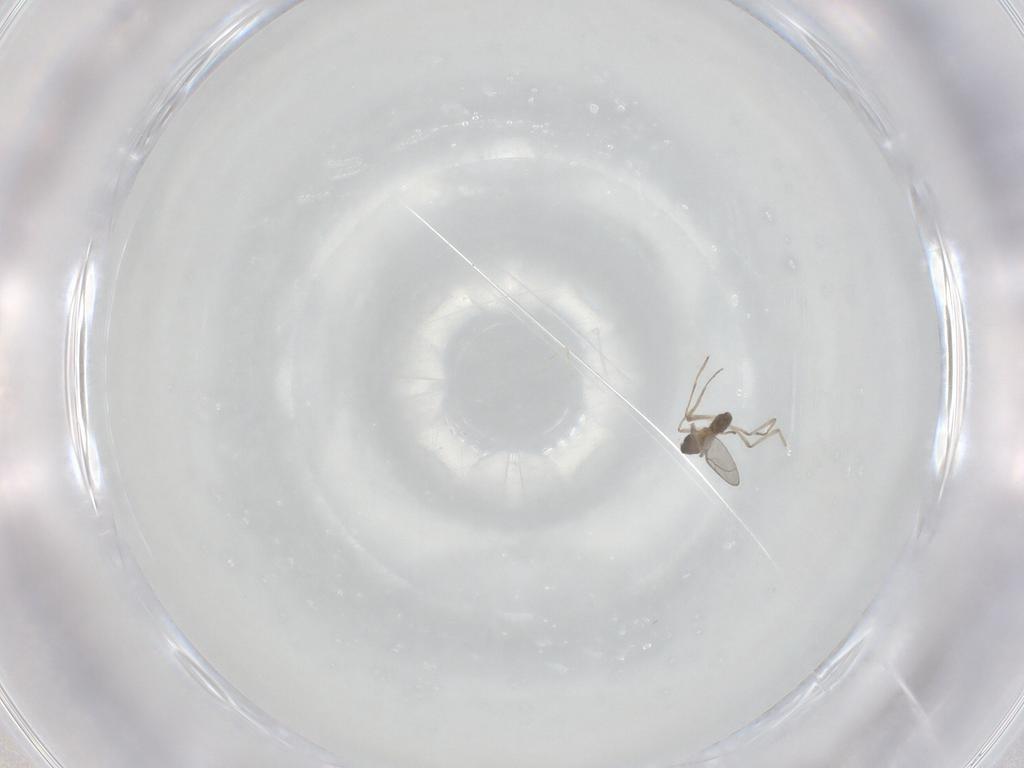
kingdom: Animalia
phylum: Arthropoda
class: Insecta
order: Diptera
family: Cecidomyiidae
